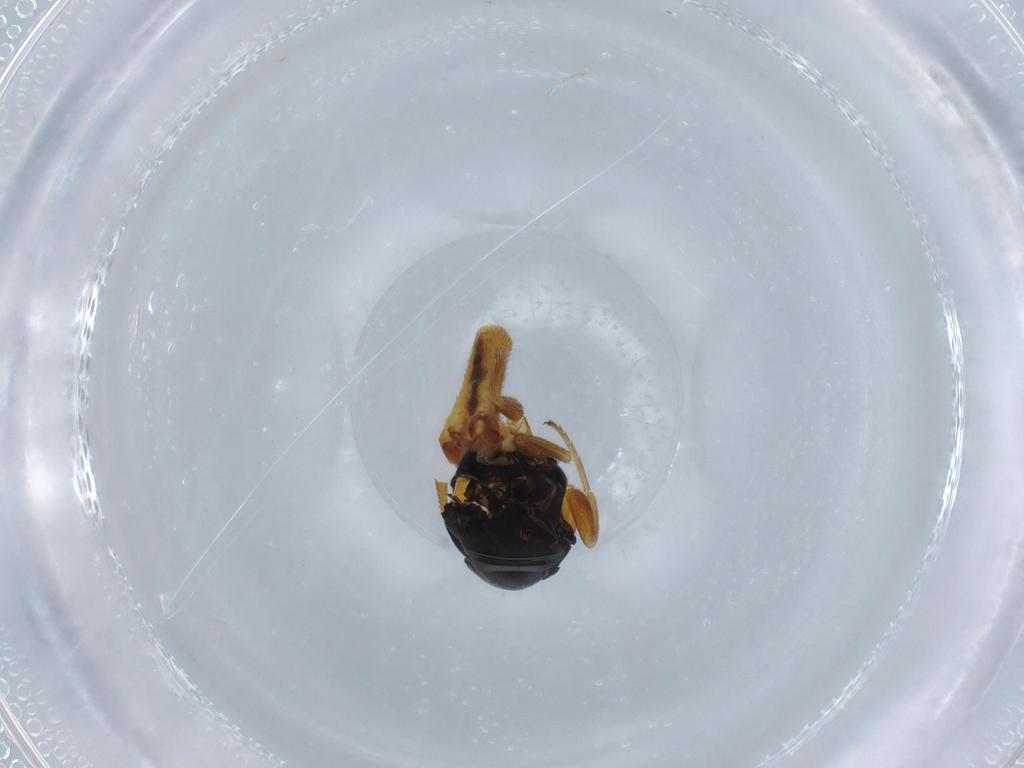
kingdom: Animalia
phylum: Arthropoda
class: Insecta
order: Diptera
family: Chloropidae
